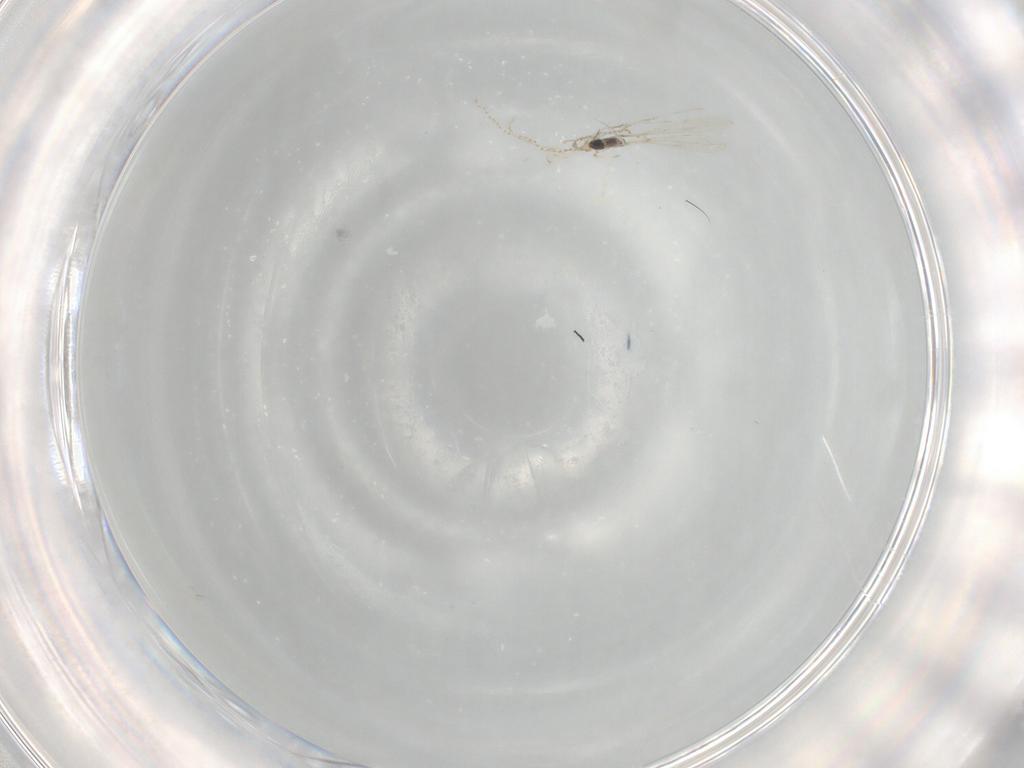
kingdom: Animalia
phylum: Arthropoda
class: Insecta
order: Diptera
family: Cecidomyiidae
